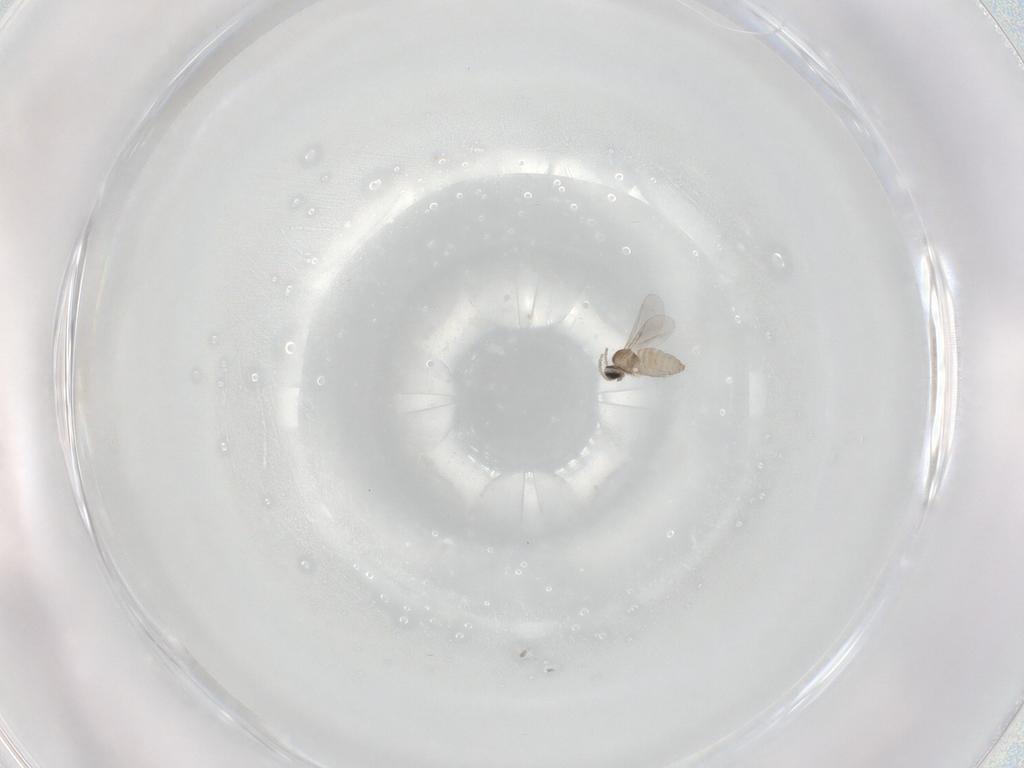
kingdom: Animalia
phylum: Arthropoda
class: Insecta
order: Diptera
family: Cecidomyiidae
